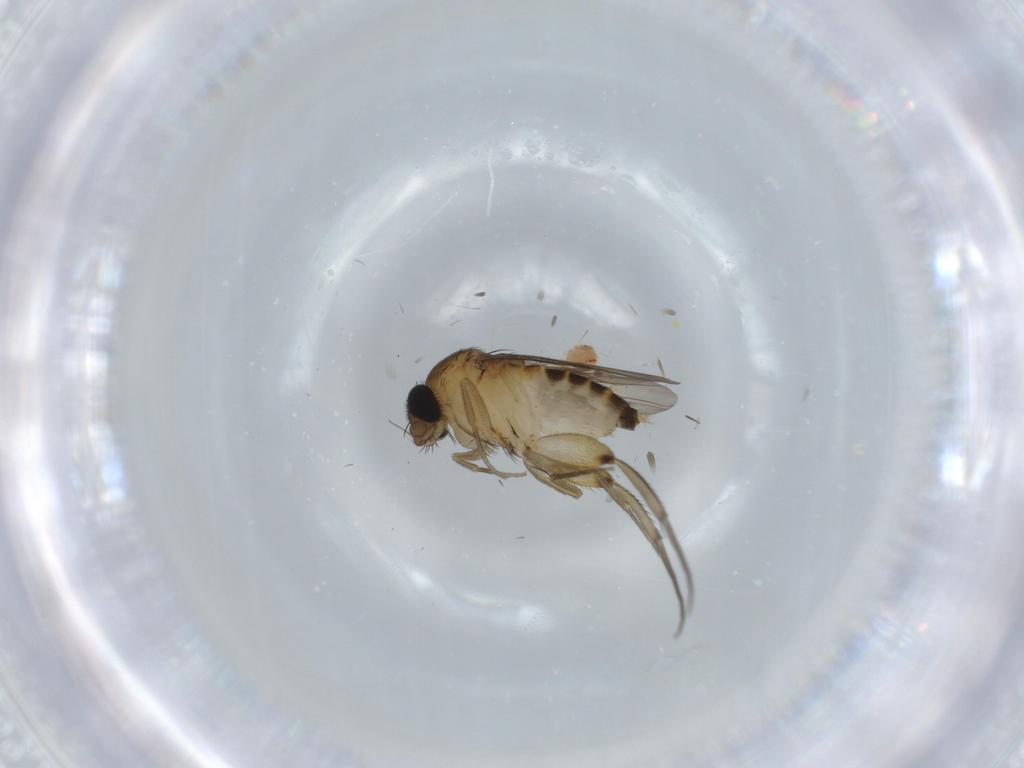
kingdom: Animalia
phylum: Arthropoda
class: Insecta
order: Diptera
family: Phoridae
